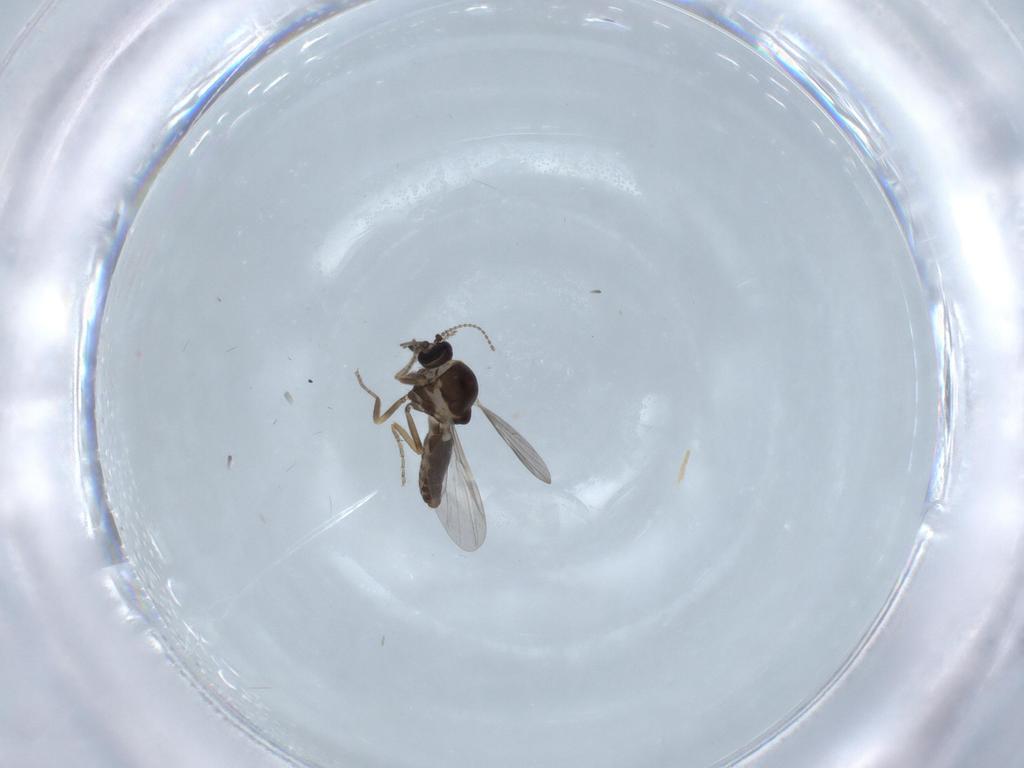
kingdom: Animalia
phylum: Arthropoda
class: Insecta
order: Diptera
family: Ceratopogonidae
